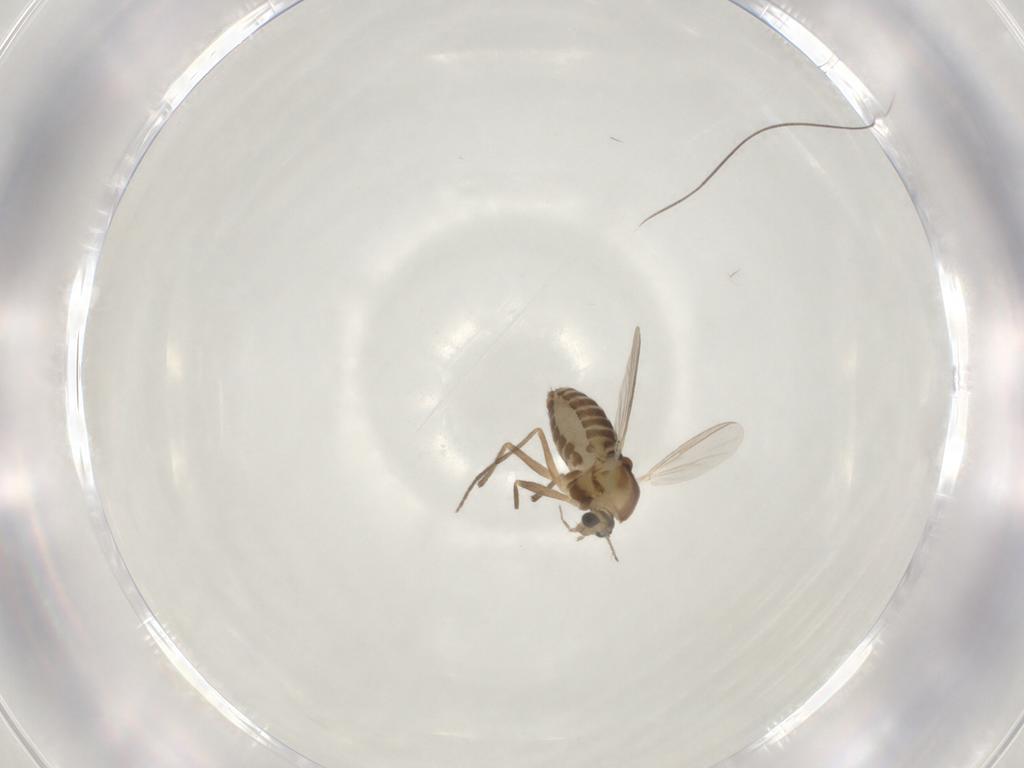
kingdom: Animalia
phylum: Arthropoda
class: Insecta
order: Diptera
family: Chironomidae
